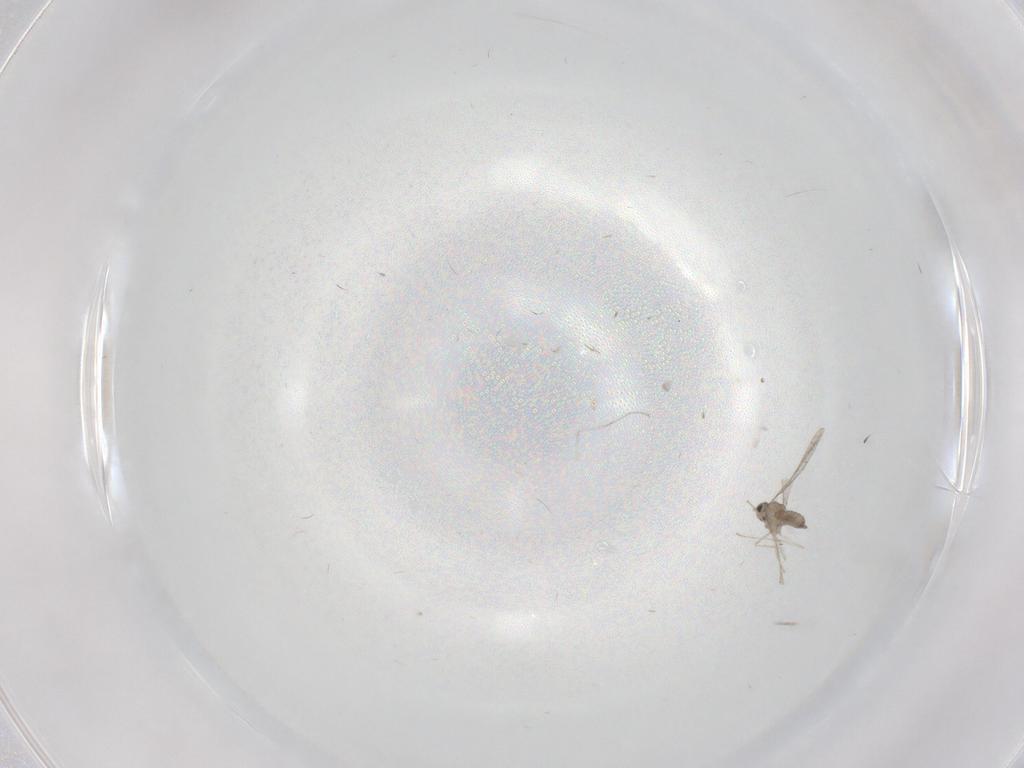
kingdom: Animalia
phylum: Arthropoda
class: Insecta
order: Diptera
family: Cecidomyiidae
